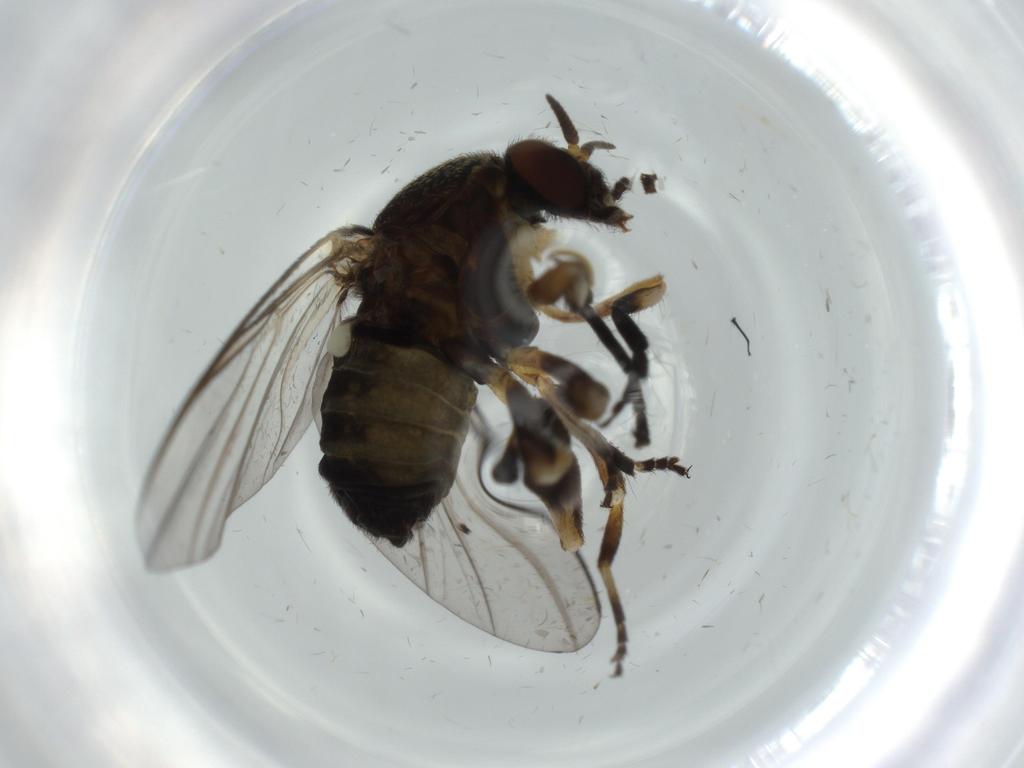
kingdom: Animalia
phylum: Arthropoda
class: Insecta
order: Diptera
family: Dolichopodidae
